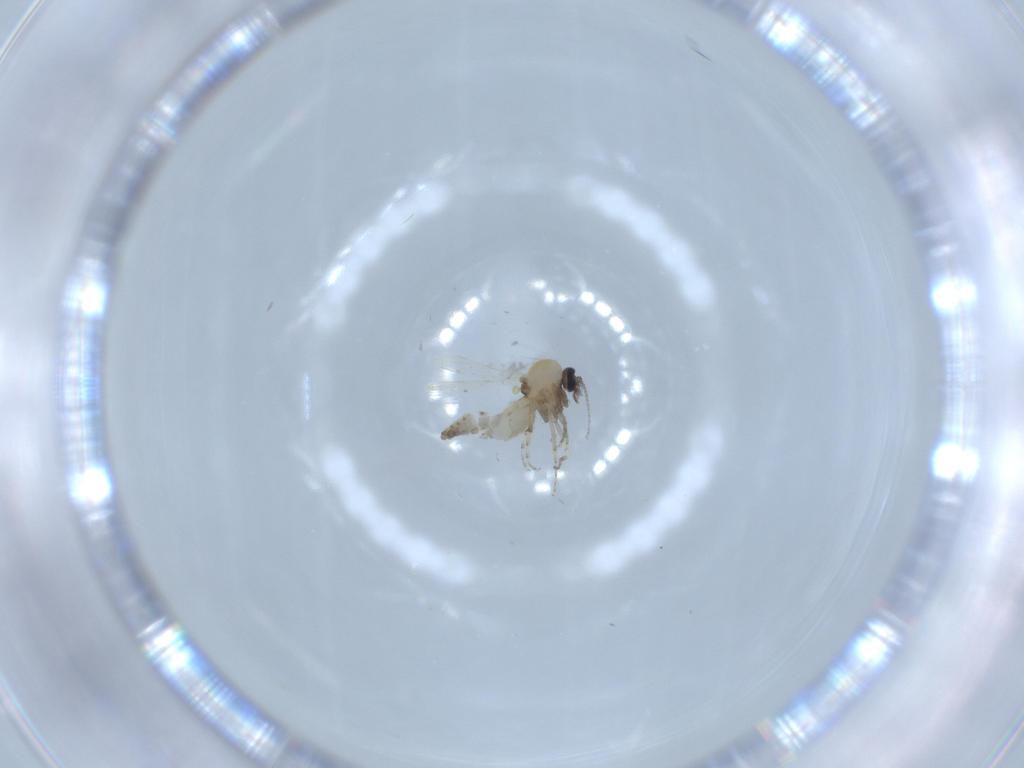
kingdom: Animalia
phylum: Arthropoda
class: Insecta
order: Diptera
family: Ceratopogonidae
